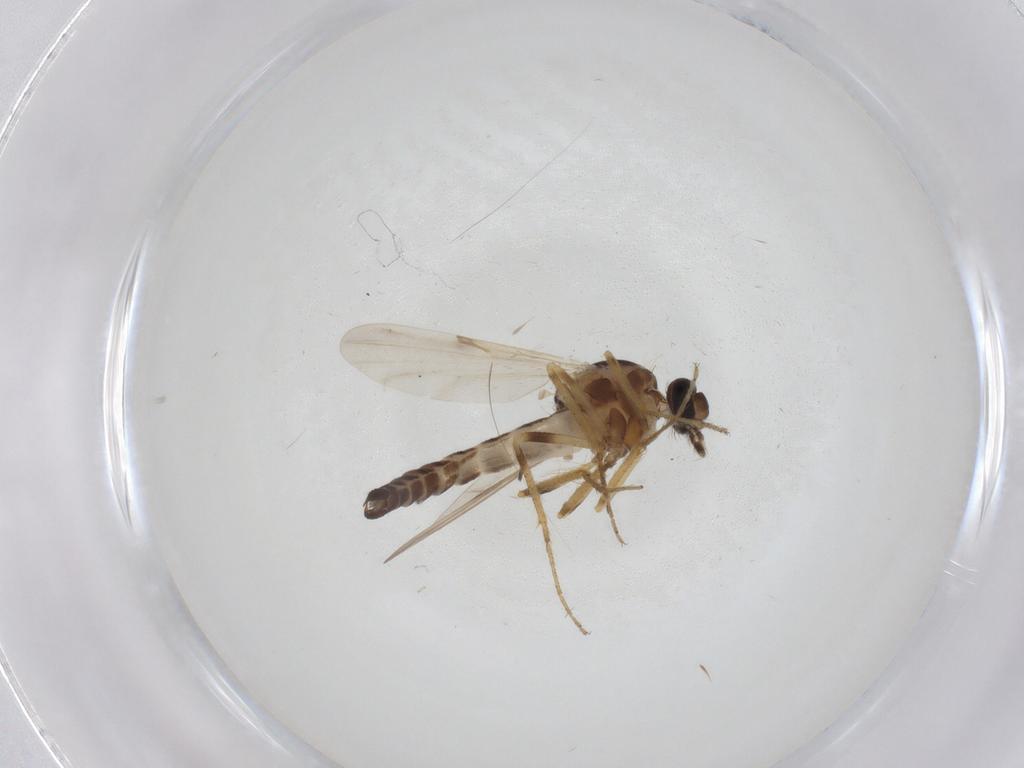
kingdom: Animalia
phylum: Arthropoda
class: Insecta
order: Diptera
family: Ceratopogonidae
